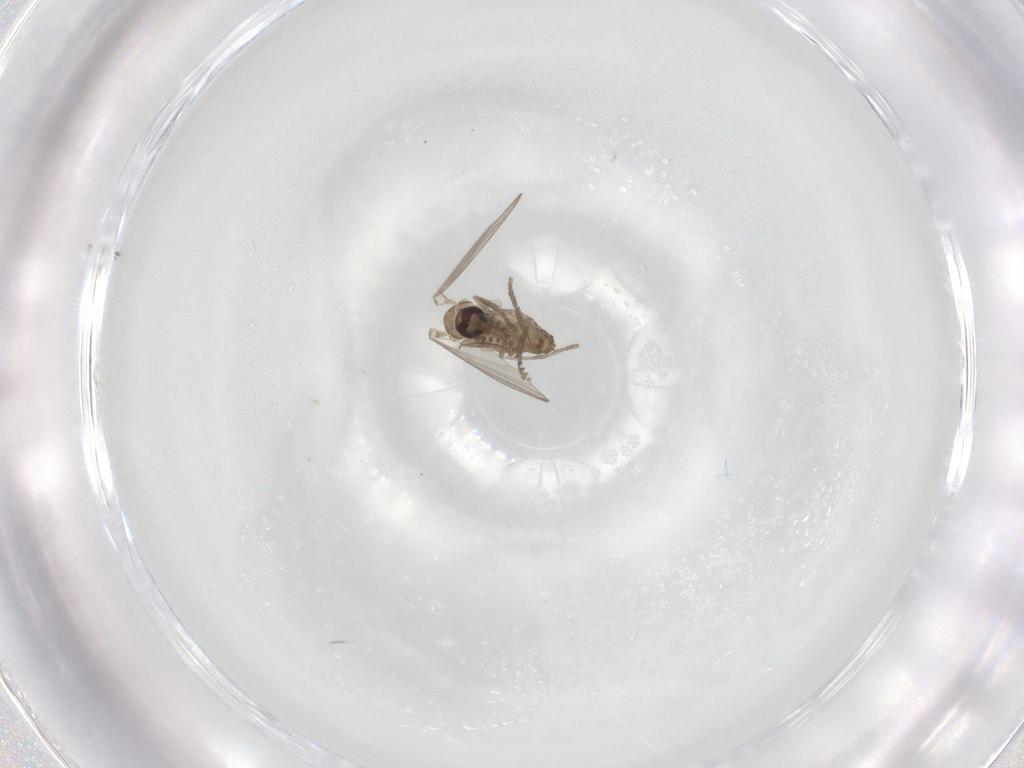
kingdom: Animalia
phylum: Arthropoda
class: Insecta
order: Diptera
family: Psychodidae
